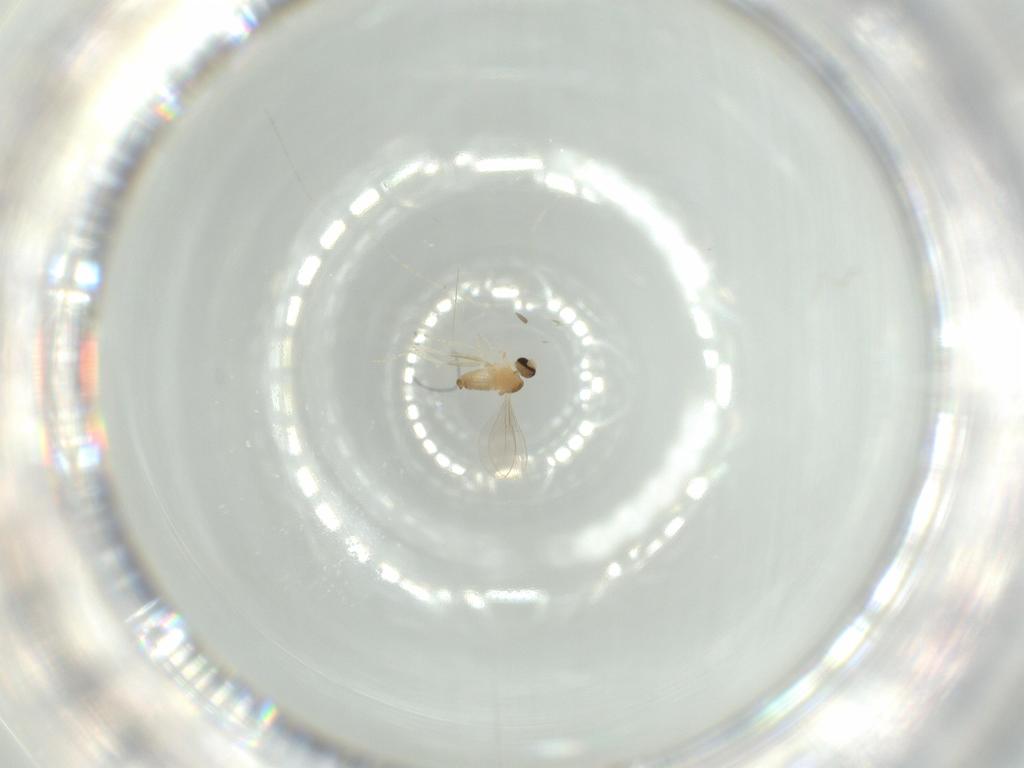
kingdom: Animalia
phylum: Arthropoda
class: Insecta
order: Diptera
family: Cecidomyiidae
